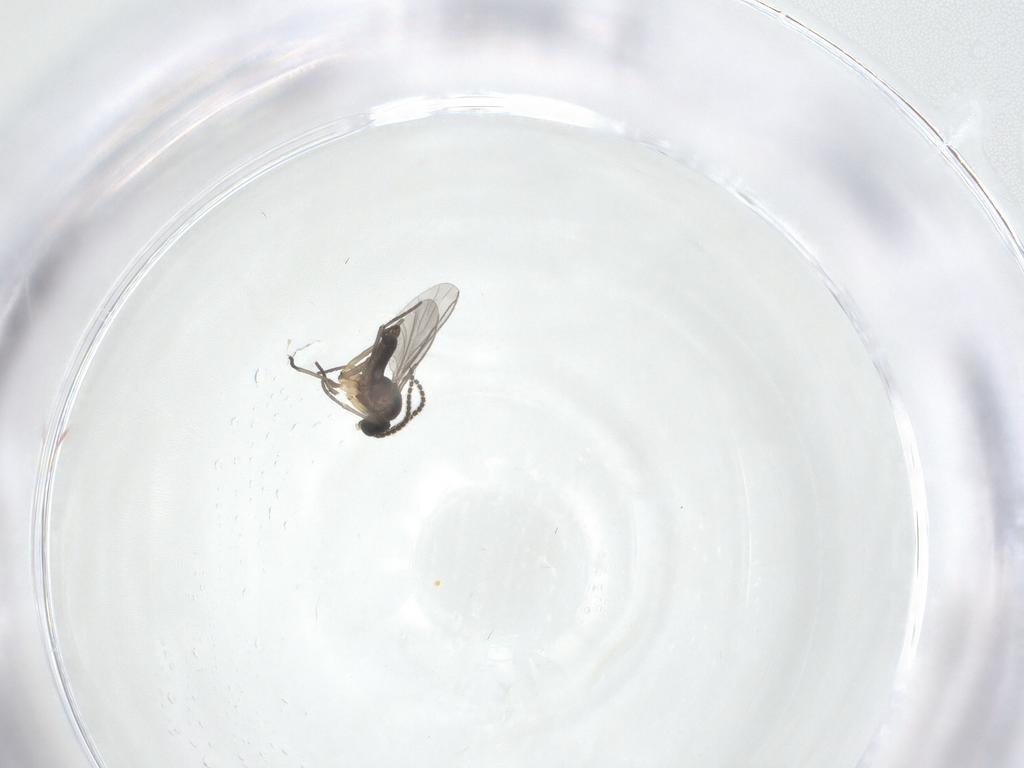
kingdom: Animalia
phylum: Arthropoda
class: Insecta
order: Diptera
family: Sciaridae
